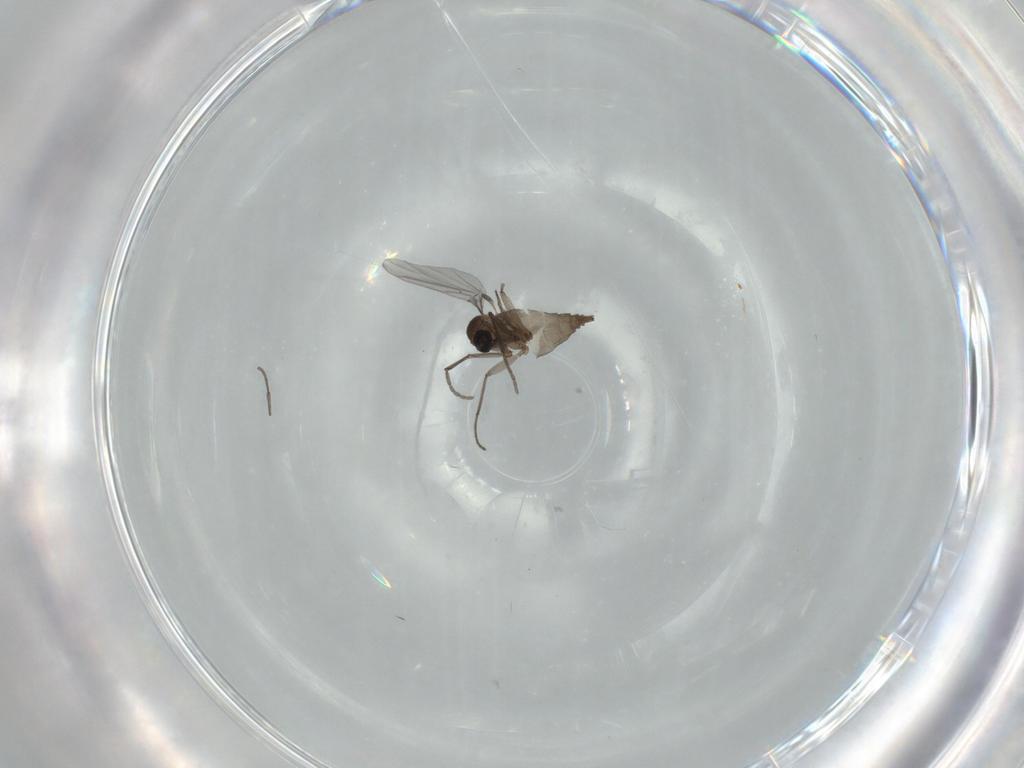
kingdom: Animalia
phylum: Arthropoda
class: Insecta
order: Diptera
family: Sciaridae
